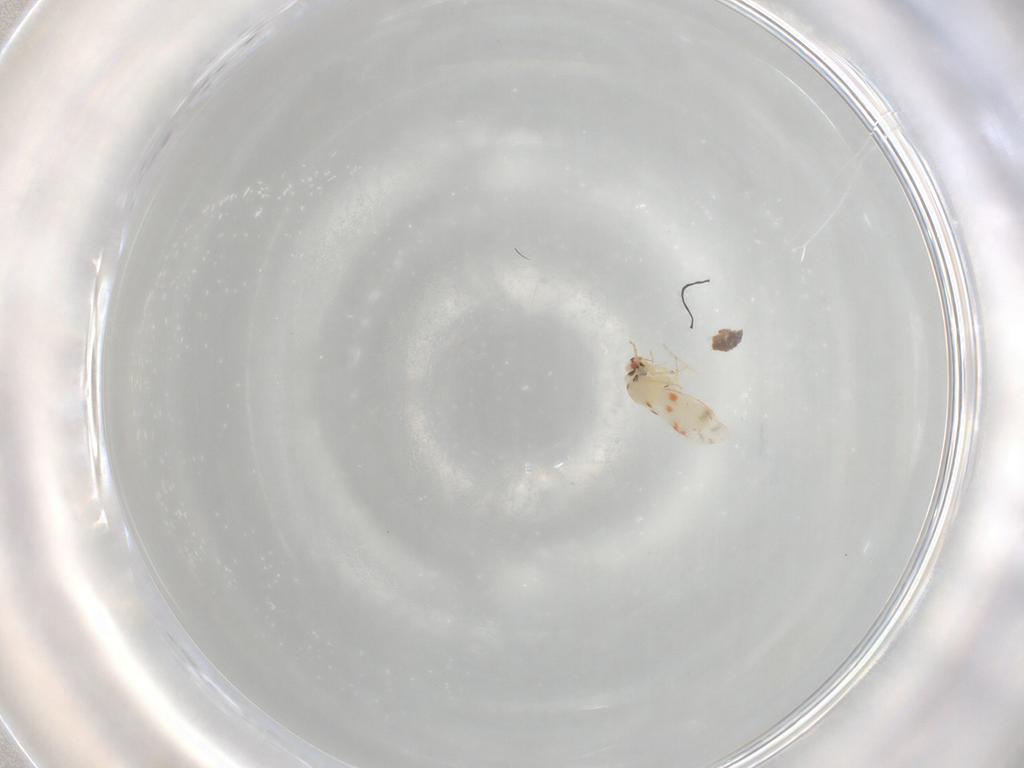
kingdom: Animalia
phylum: Arthropoda
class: Insecta
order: Hemiptera
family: Aleyrodidae
